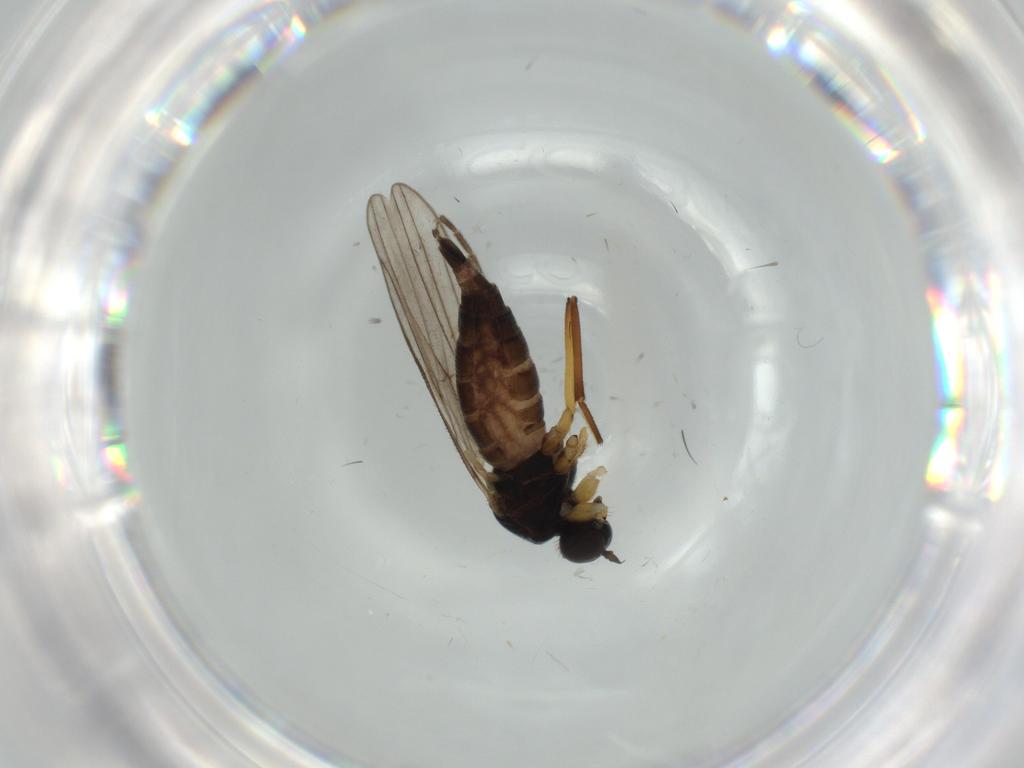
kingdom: Animalia
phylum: Arthropoda
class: Insecta
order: Diptera
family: Hybotidae
